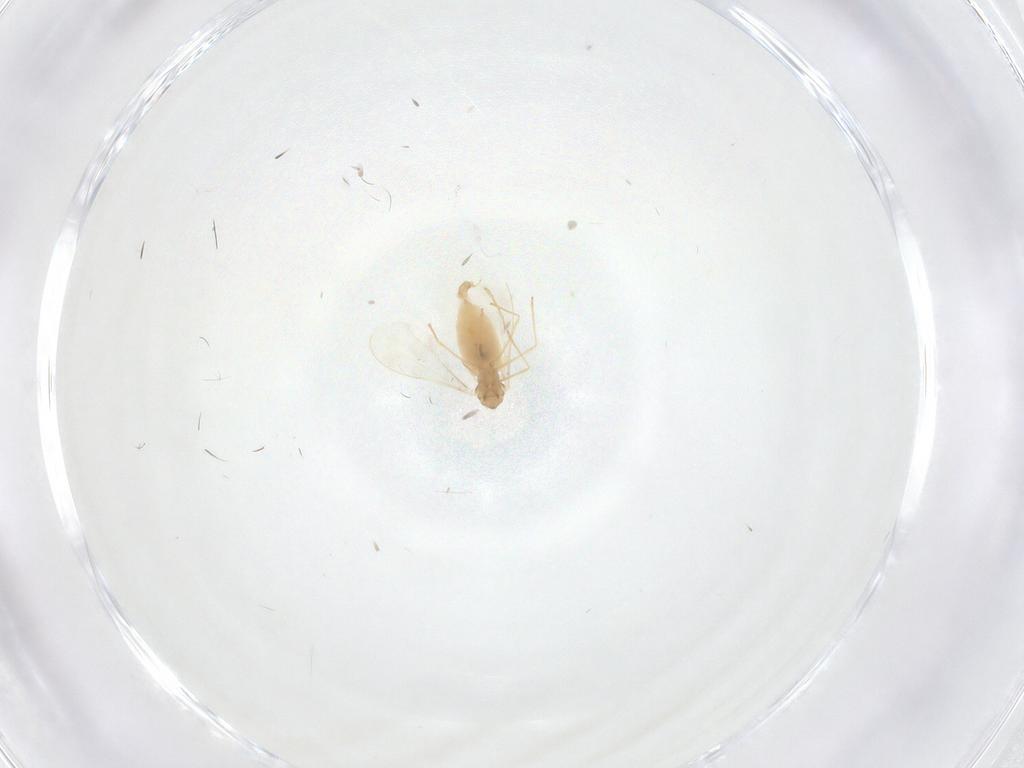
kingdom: Animalia
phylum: Arthropoda
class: Insecta
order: Diptera
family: Cecidomyiidae
